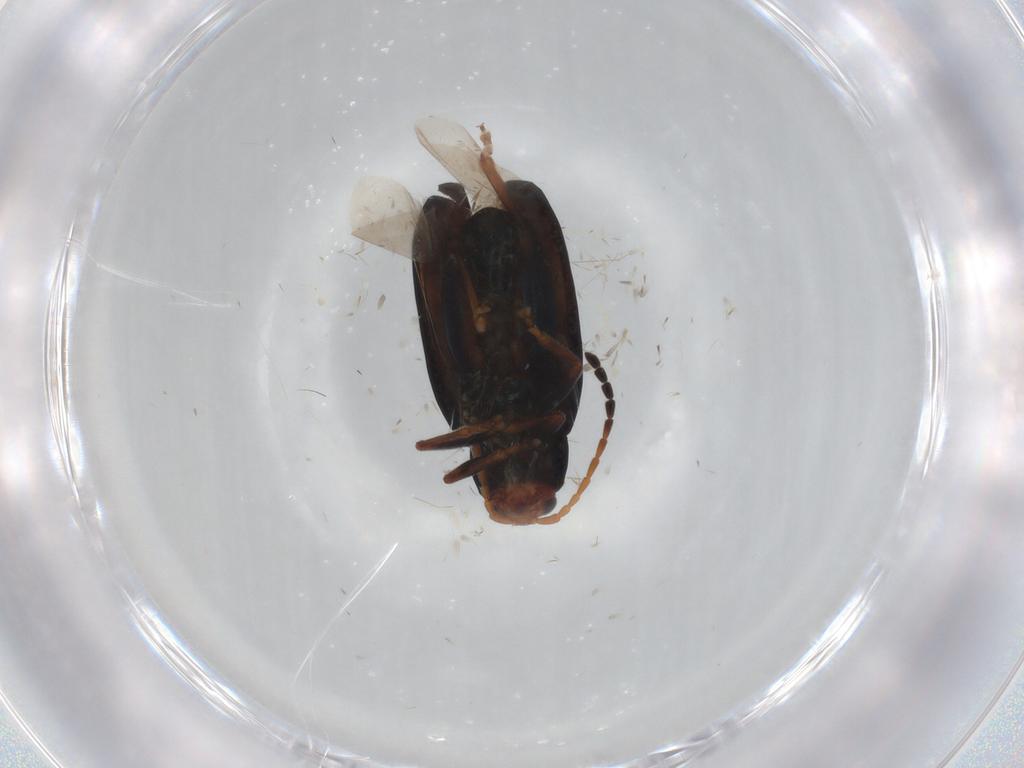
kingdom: Animalia
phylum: Arthropoda
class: Insecta
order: Coleoptera
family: Chrysomelidae
